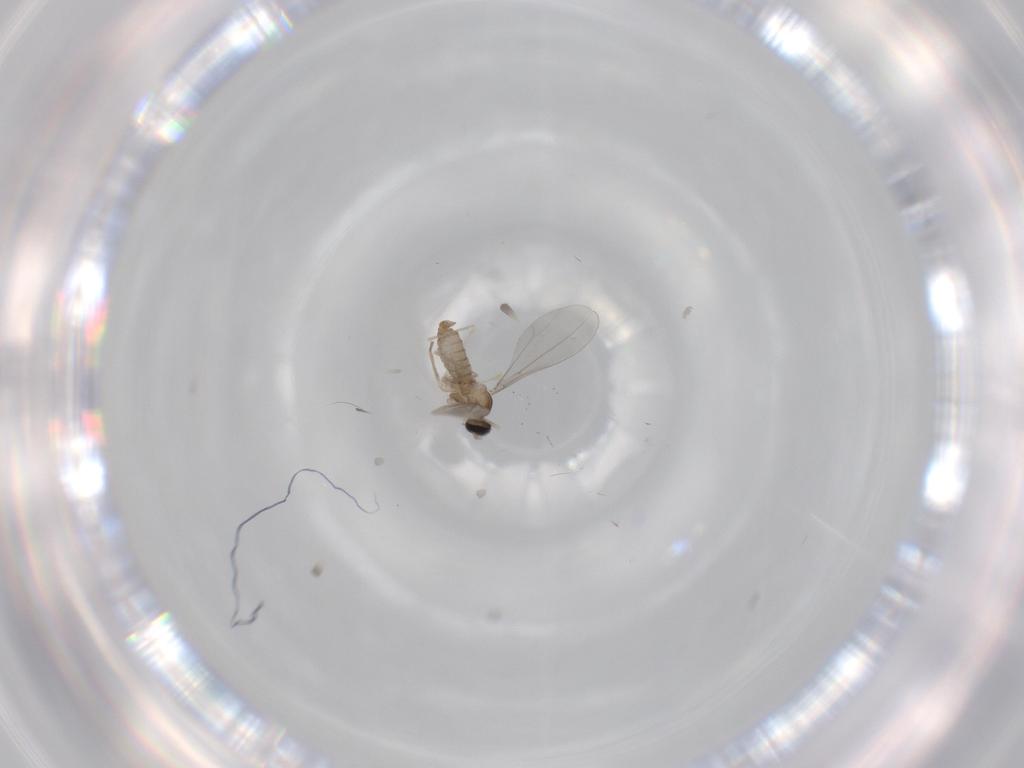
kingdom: Animalia
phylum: Arthropoda
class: Insecta
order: Diptera
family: Cecidomyiidae
